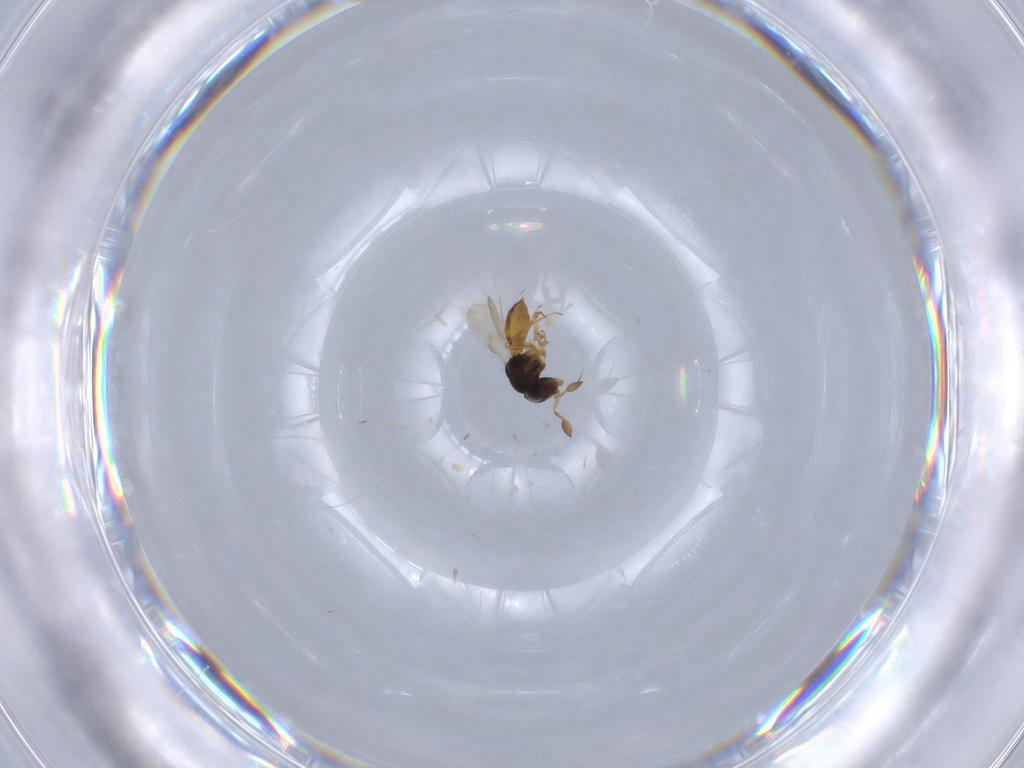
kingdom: Animalia
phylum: Arthropoda
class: Insecta
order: Hymenoptera
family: Scelionidae
